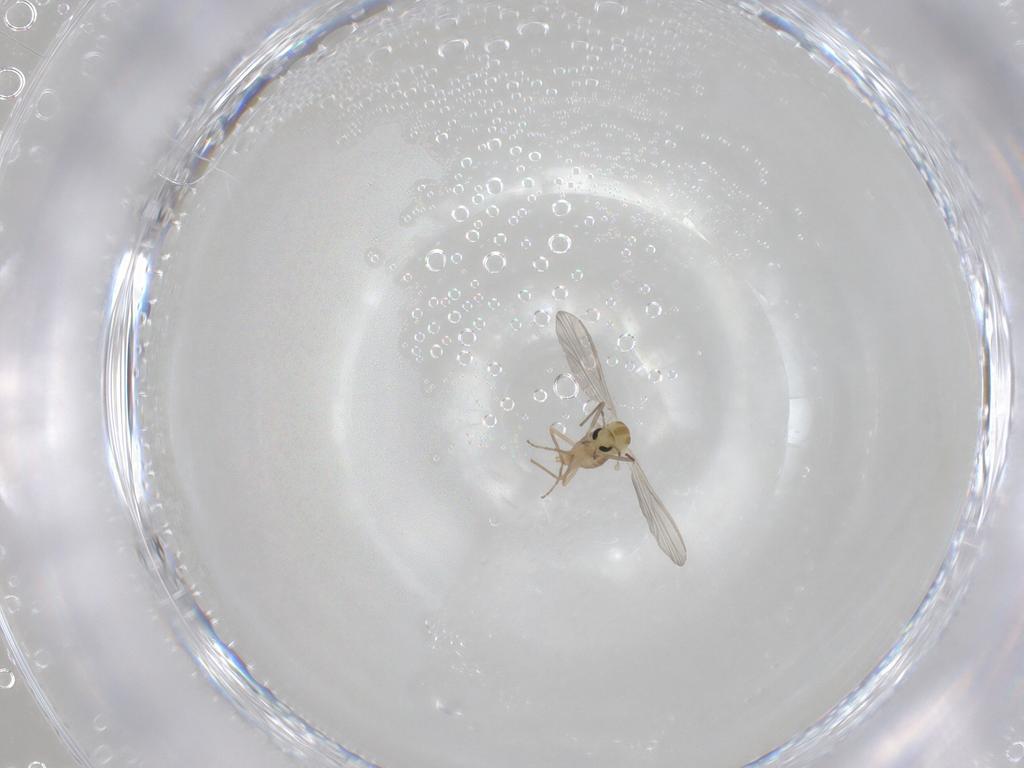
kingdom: Animalia
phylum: Arthropoda
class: Insecta
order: Diptera
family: Chironomidae
